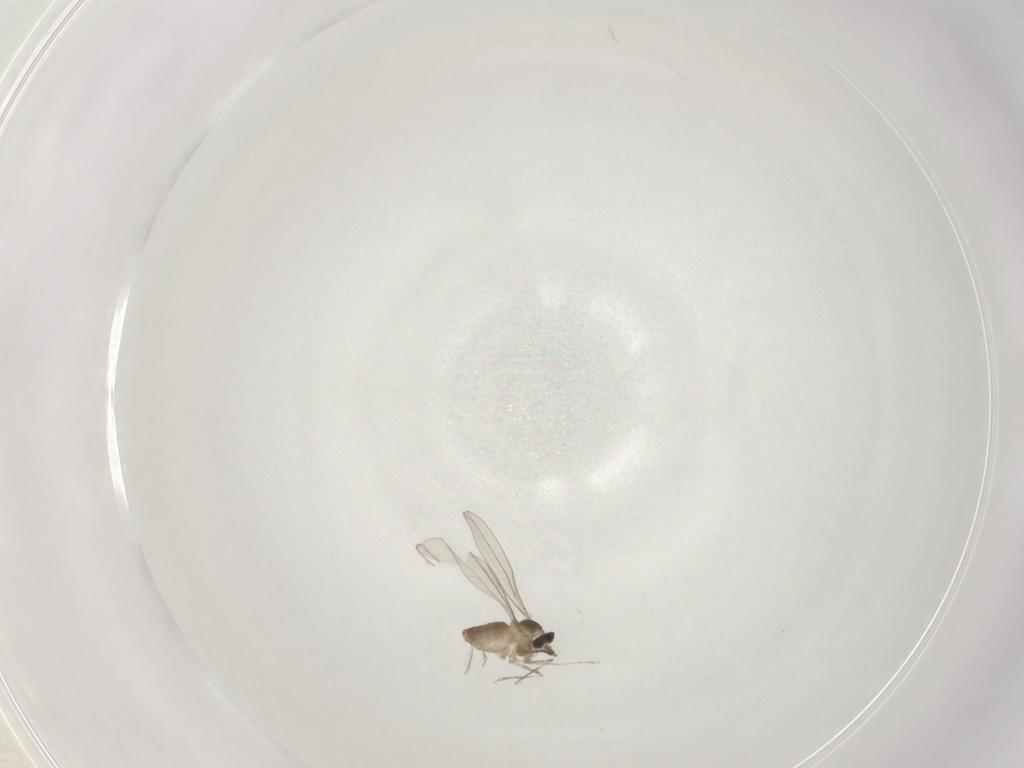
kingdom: Animalia
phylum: Arthropoda
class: Insecta
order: Diptera
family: Cecidomyiidae
